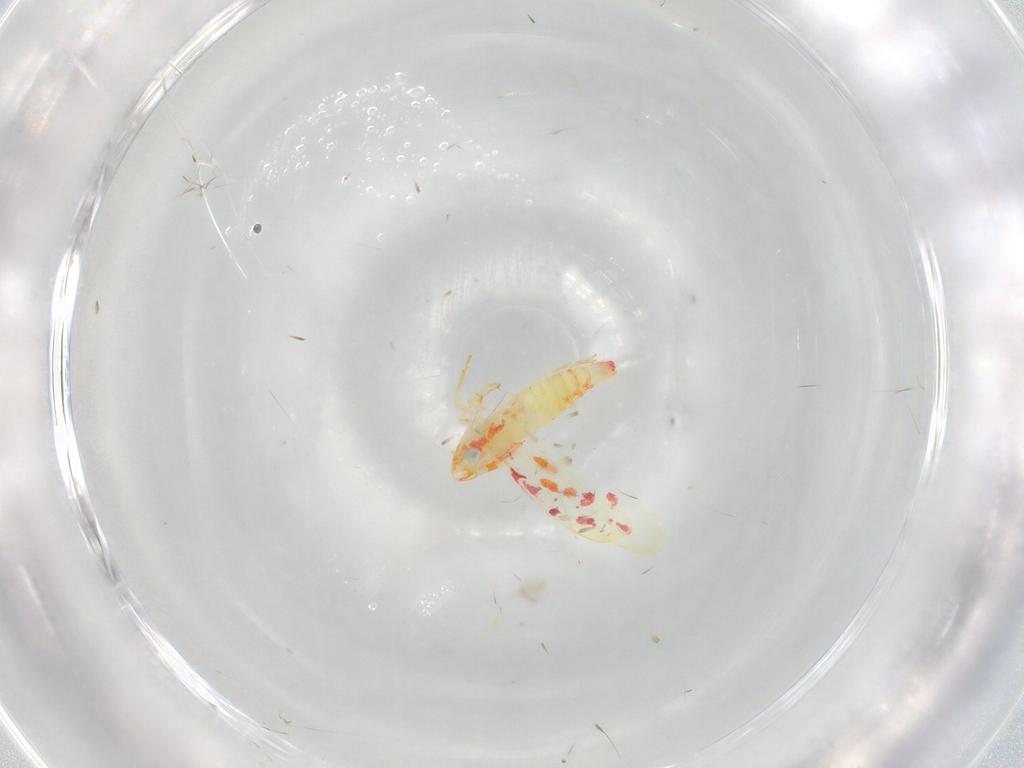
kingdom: Animalia
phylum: Arthropoda
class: Insecta
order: Hemiptera
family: Cicadellidae
